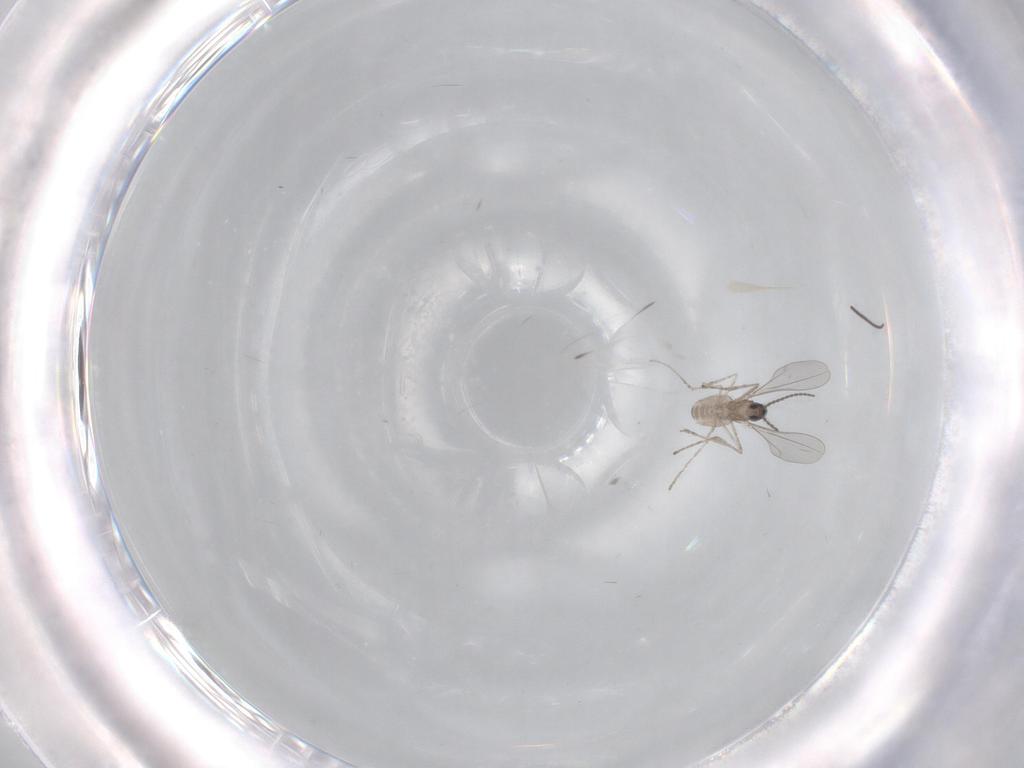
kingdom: Animalia
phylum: Arthropoda
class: Insecta
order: Diptera
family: Cecidomyiidae
